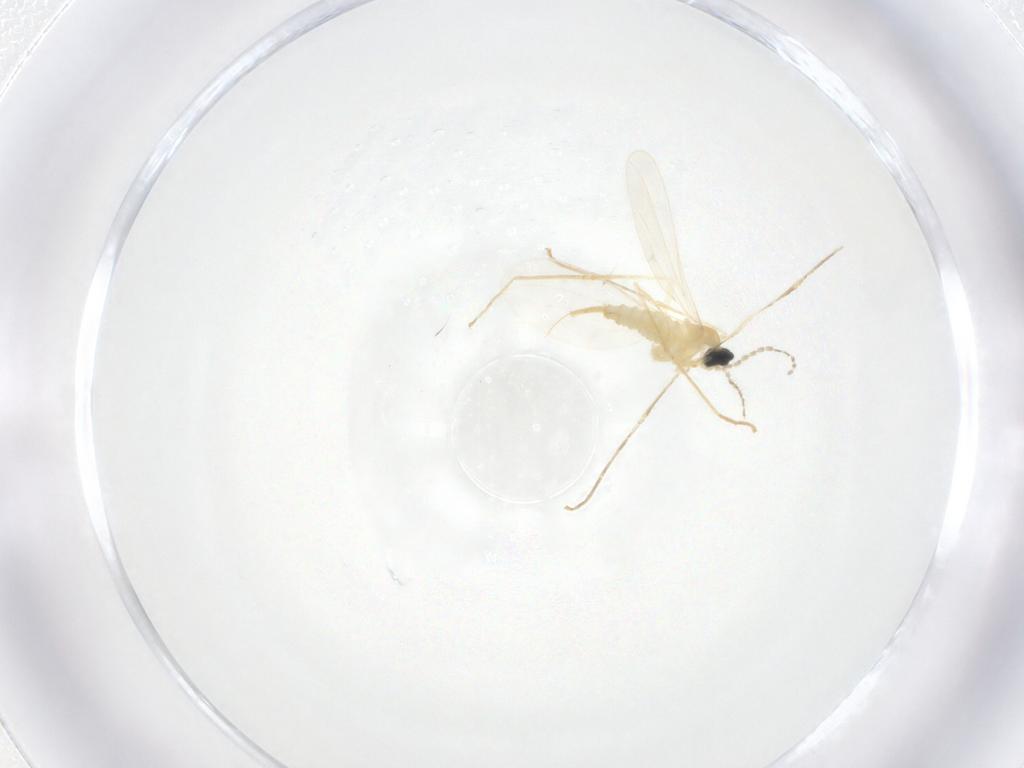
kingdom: Animalia
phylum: Arthropoda
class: Insecta
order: Diptera
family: Cecidomyiidae
